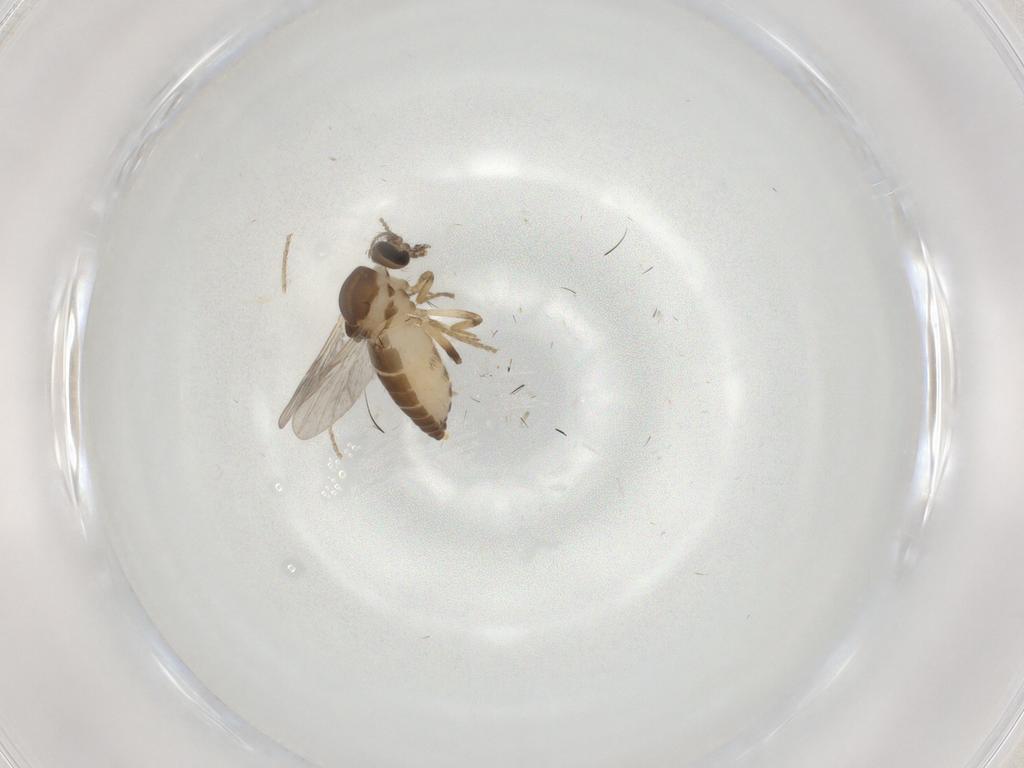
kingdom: Animalia
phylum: Arthropoda
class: Insecta
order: Diptera
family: Ceratopogonidae
